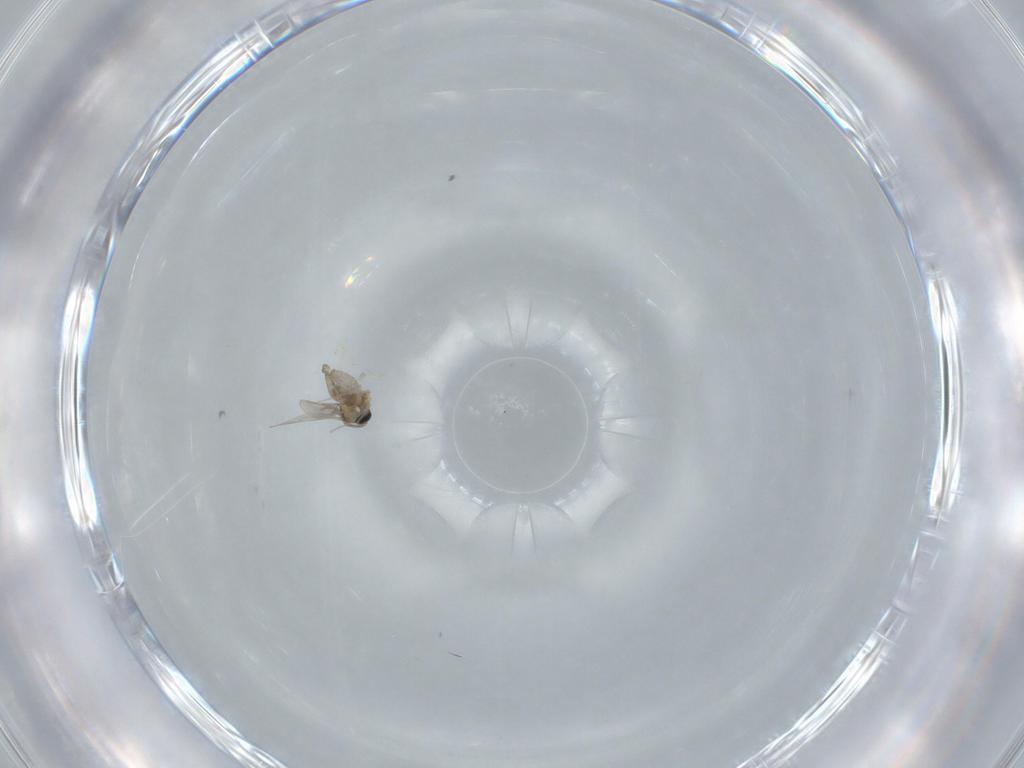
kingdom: Animalia
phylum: Arthropoda
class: Insecta
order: Diptera
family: Cecidomyiidae
